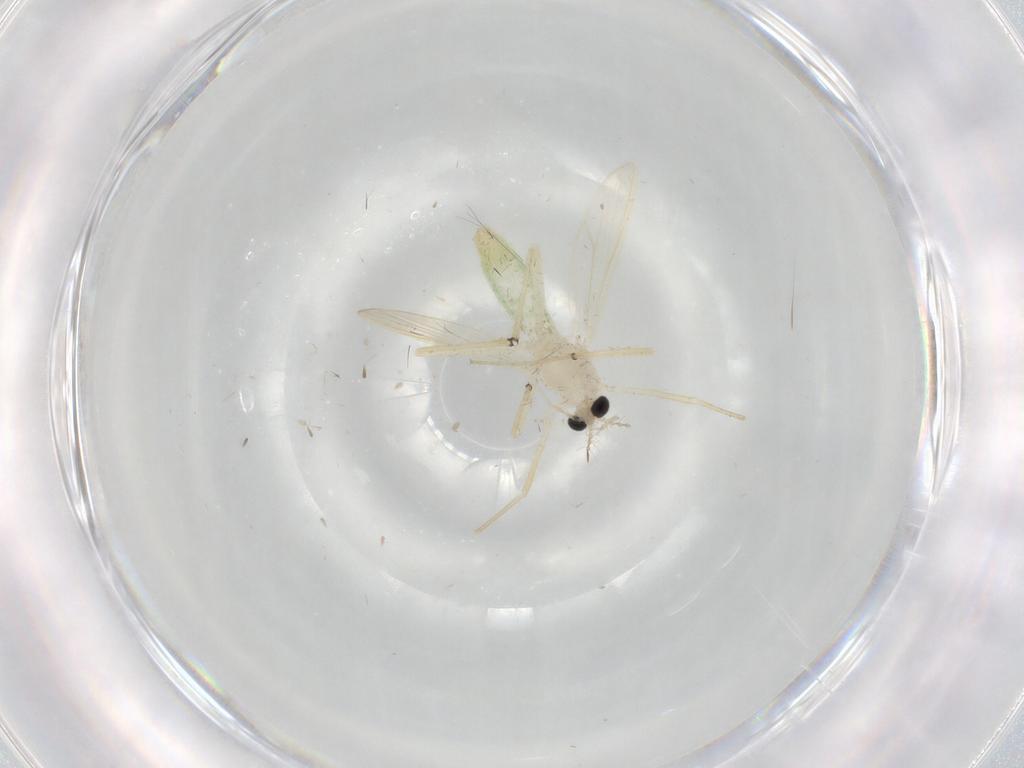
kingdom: Animalia
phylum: Arthropoda
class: Insecta
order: Diptera
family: Chironomidae
